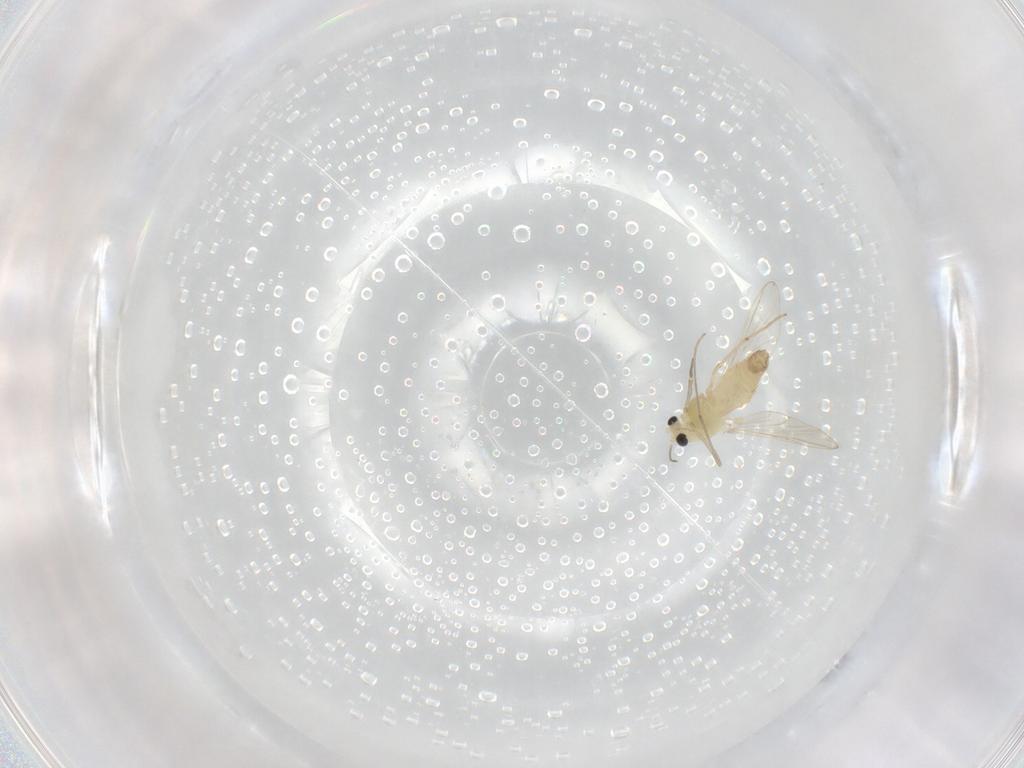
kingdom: Animalia
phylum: Arthropoda
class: Insecta
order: Diptera
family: Chironomidae
